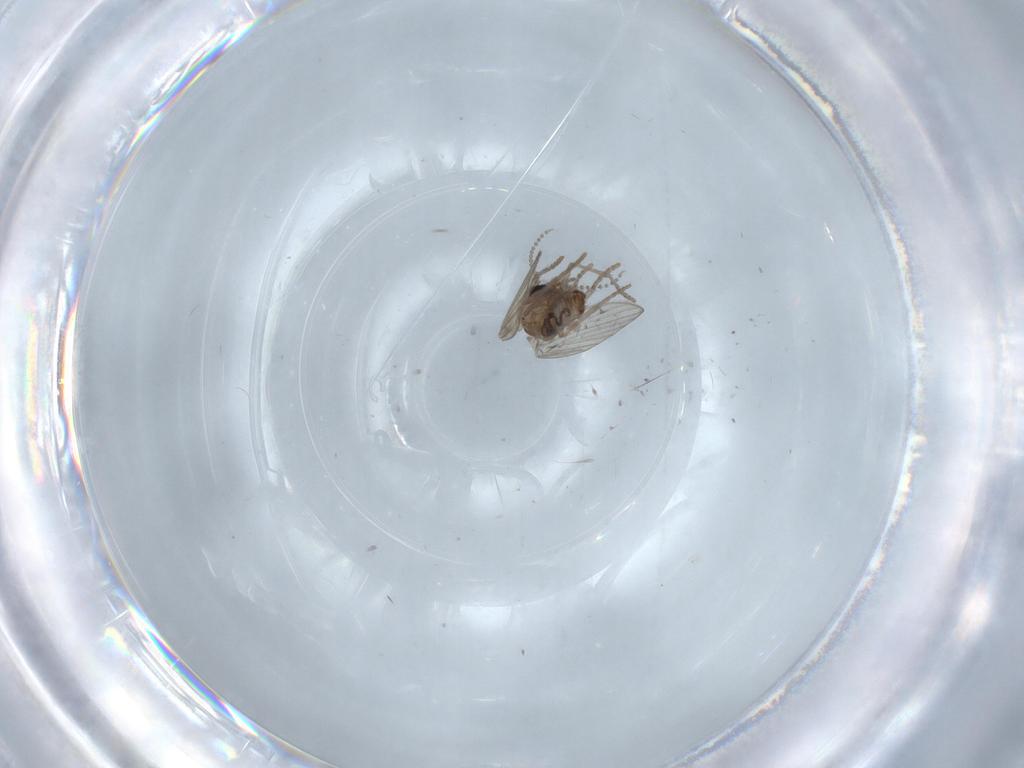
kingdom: Animalia
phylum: Arthropoda
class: Insecta
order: Diptera
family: Psychodidae
